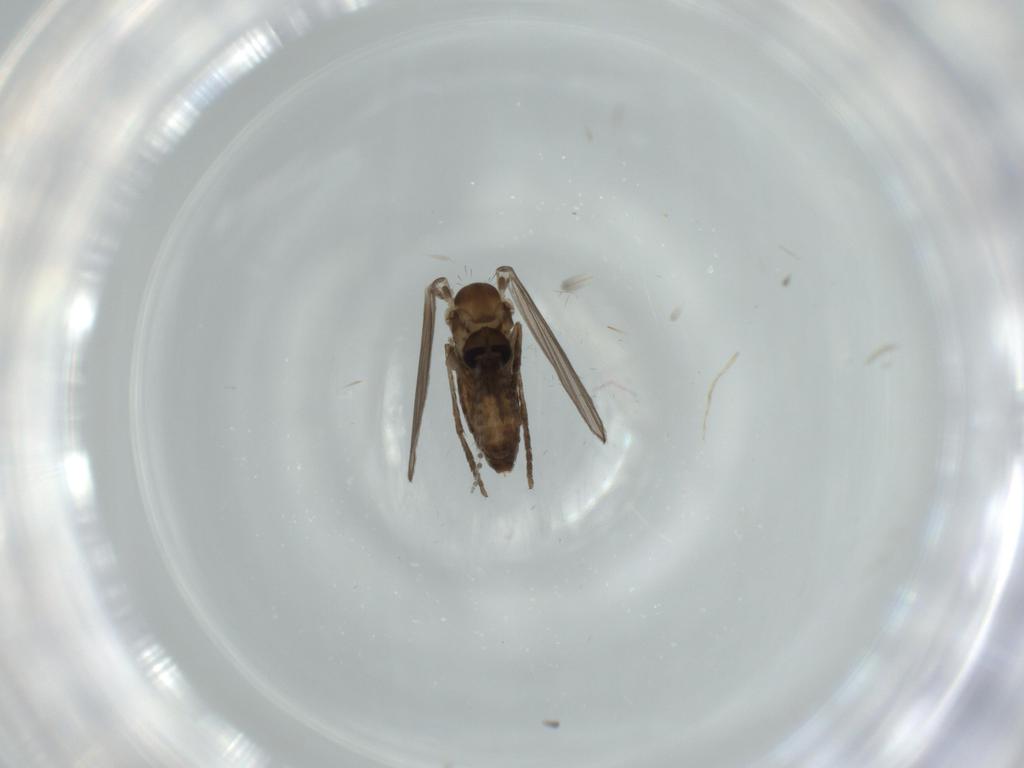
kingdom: Animalia
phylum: Arthropoda
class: Insecta
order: Diptera
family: Psychodidae
